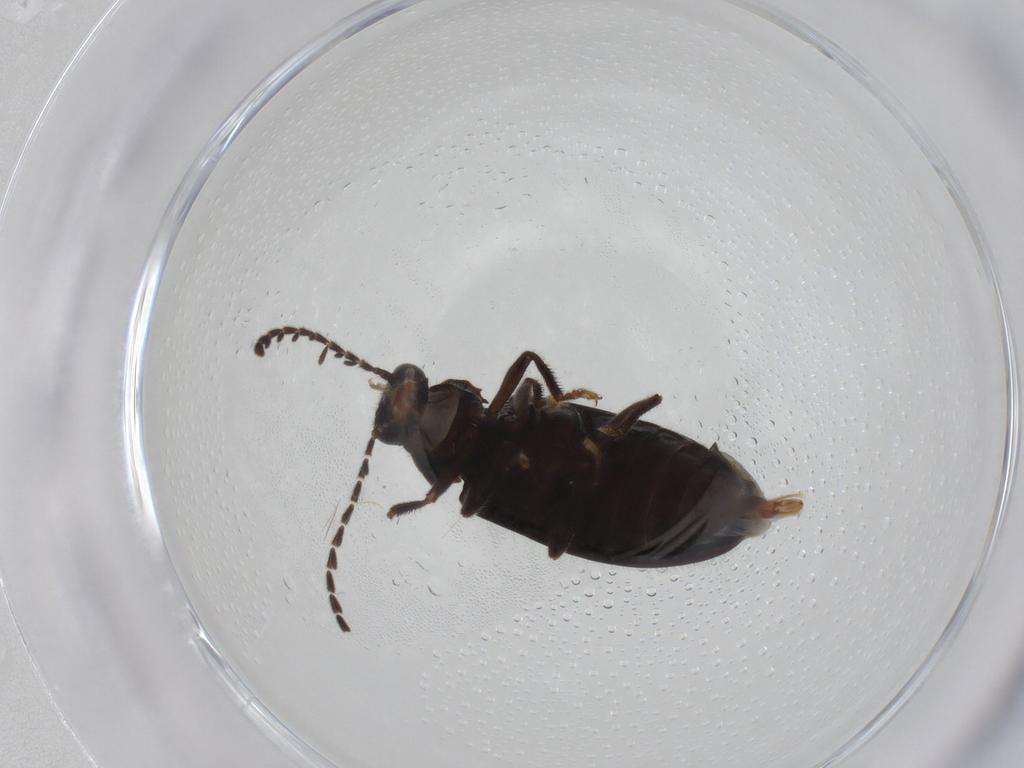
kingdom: Animalia
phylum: Arthropoda
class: Insecta
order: Coleoptera
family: Ptilodactylidae
